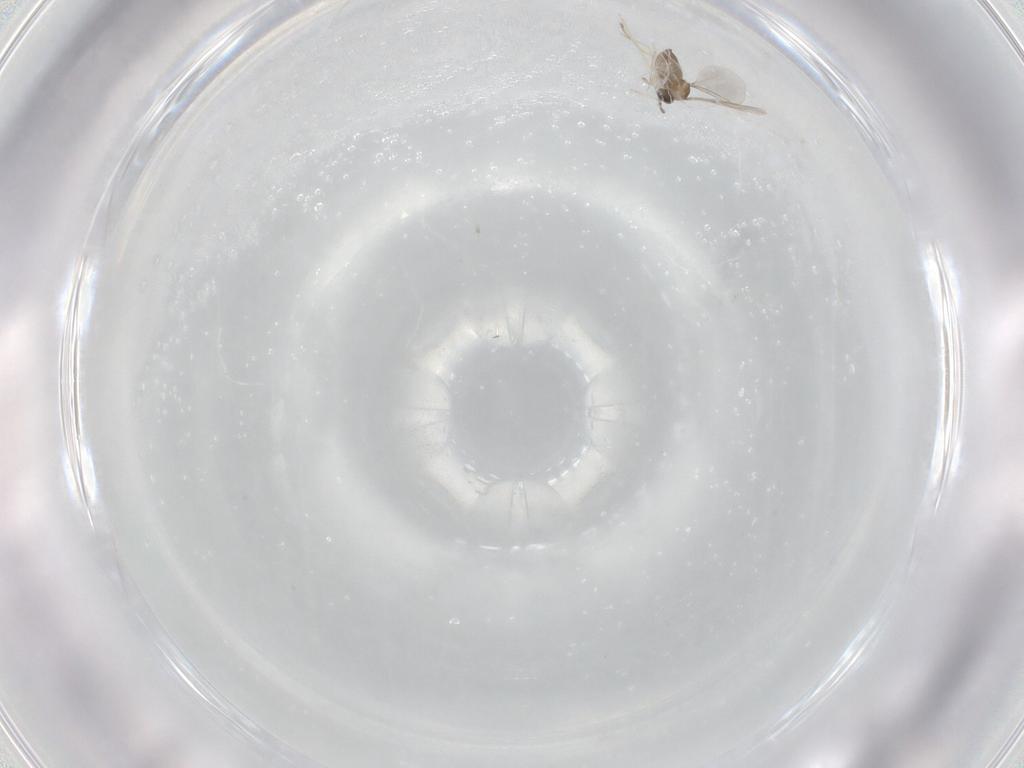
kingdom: Animalia
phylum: Arthropoda
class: Insecta
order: Diptera
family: Cecidomyiidae
